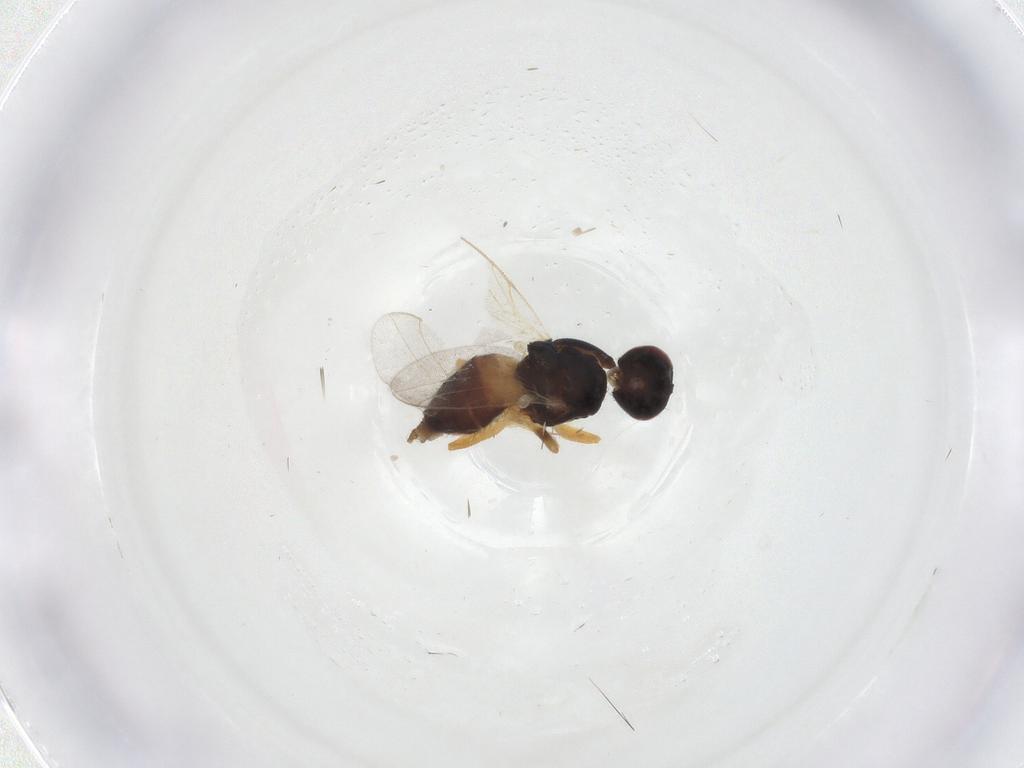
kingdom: Animalia
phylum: Arthropoda
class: Insecta
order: Diptera
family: Chloropidae
